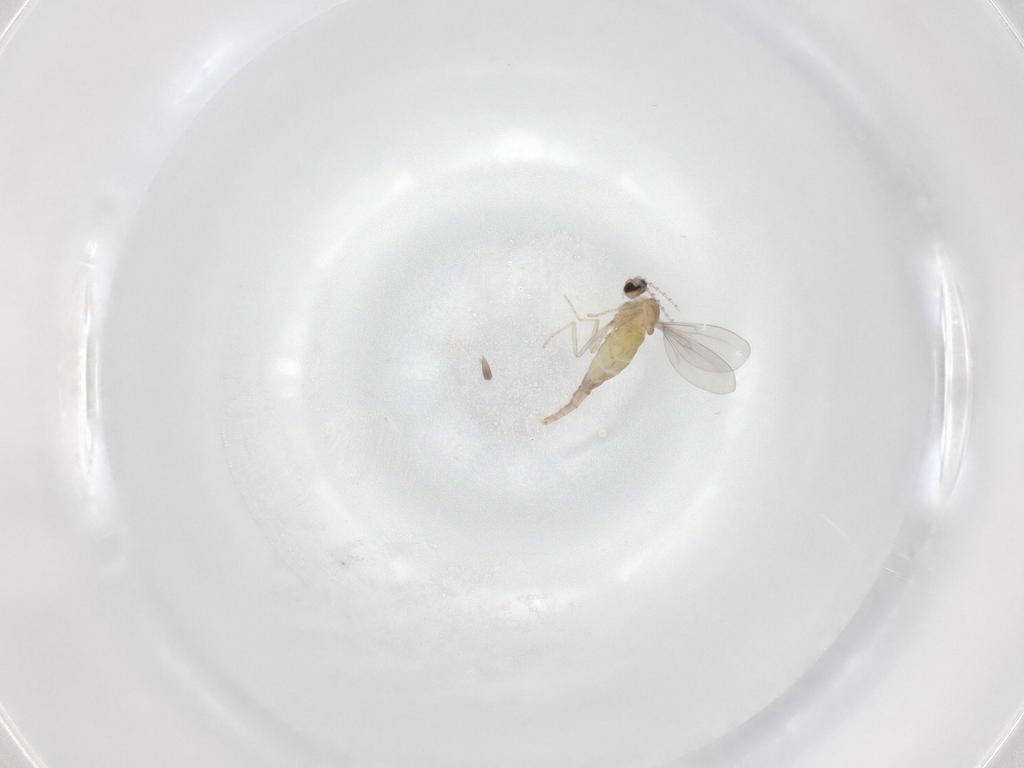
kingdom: Animalia
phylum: Arthropoda
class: Insecta
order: Diptera
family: Cecidomyiidae
